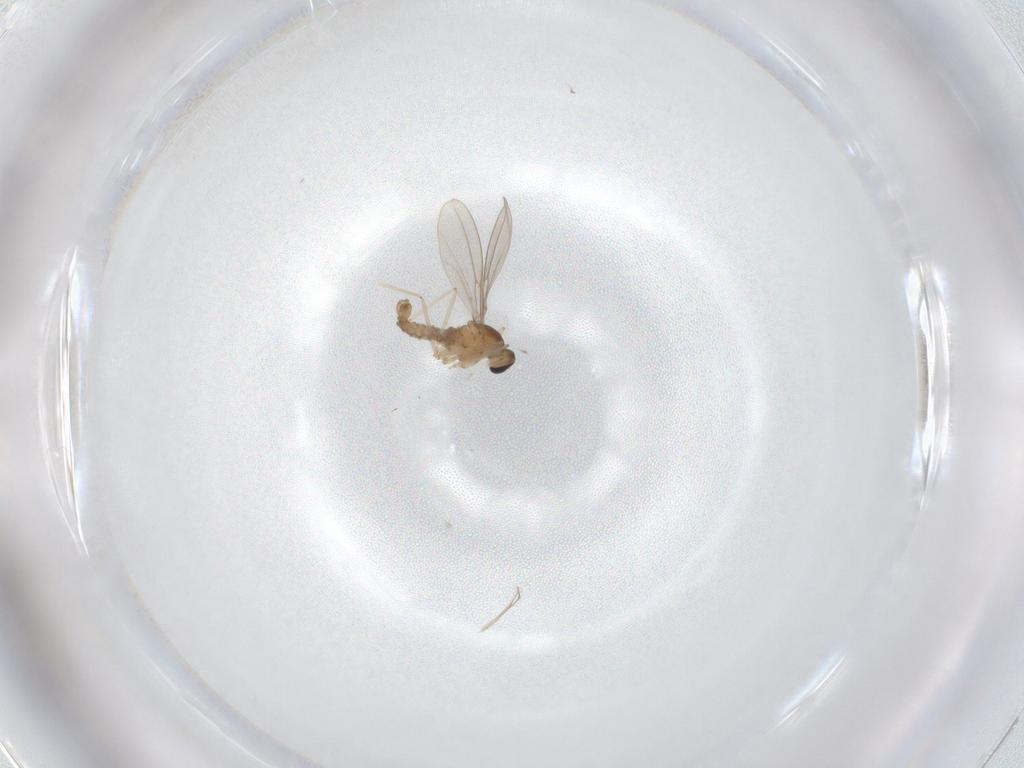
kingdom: Animalia
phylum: Arthropoda
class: Insecta
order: Diptera
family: Cecidomyiidae
